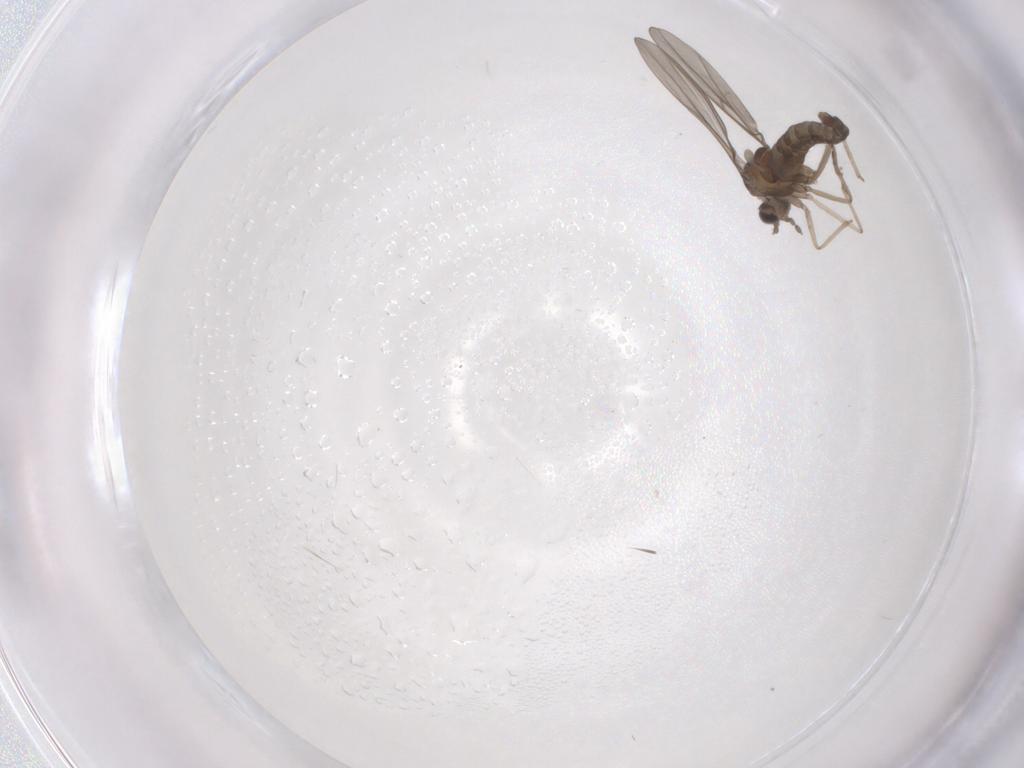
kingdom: Animalia
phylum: Arthropoda
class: Insecta
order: Diptera
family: Cecidomyiidae
